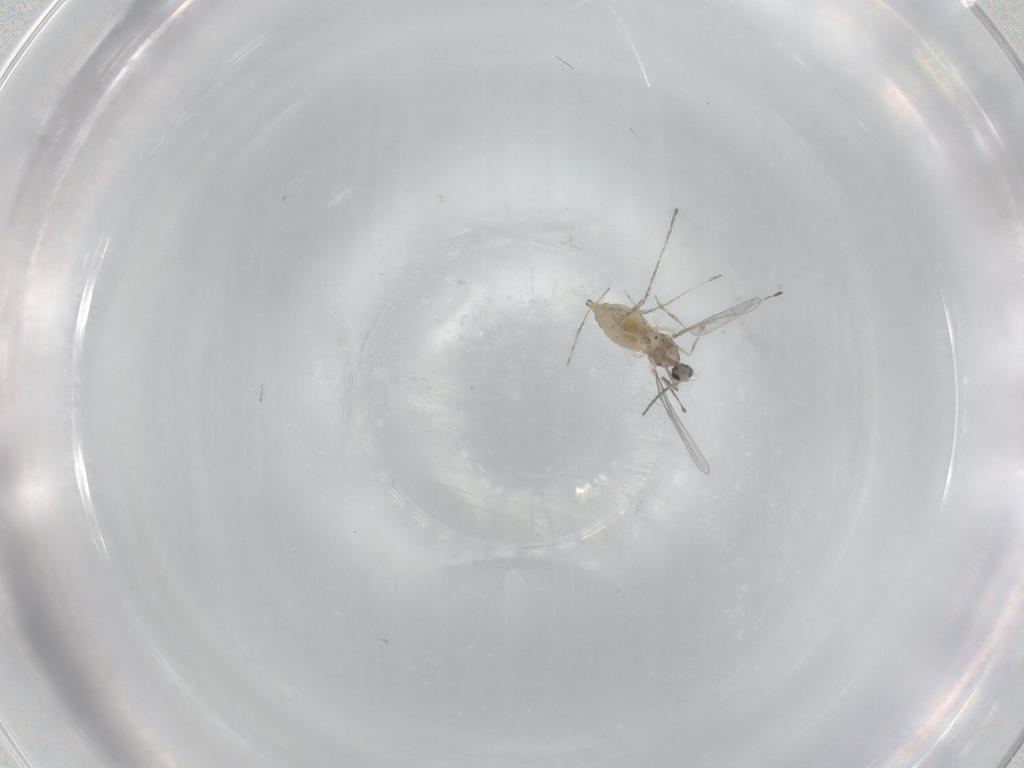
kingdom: Animalia
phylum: Arthropoda
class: Insecta
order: Diptera
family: Cecidomyiidae
